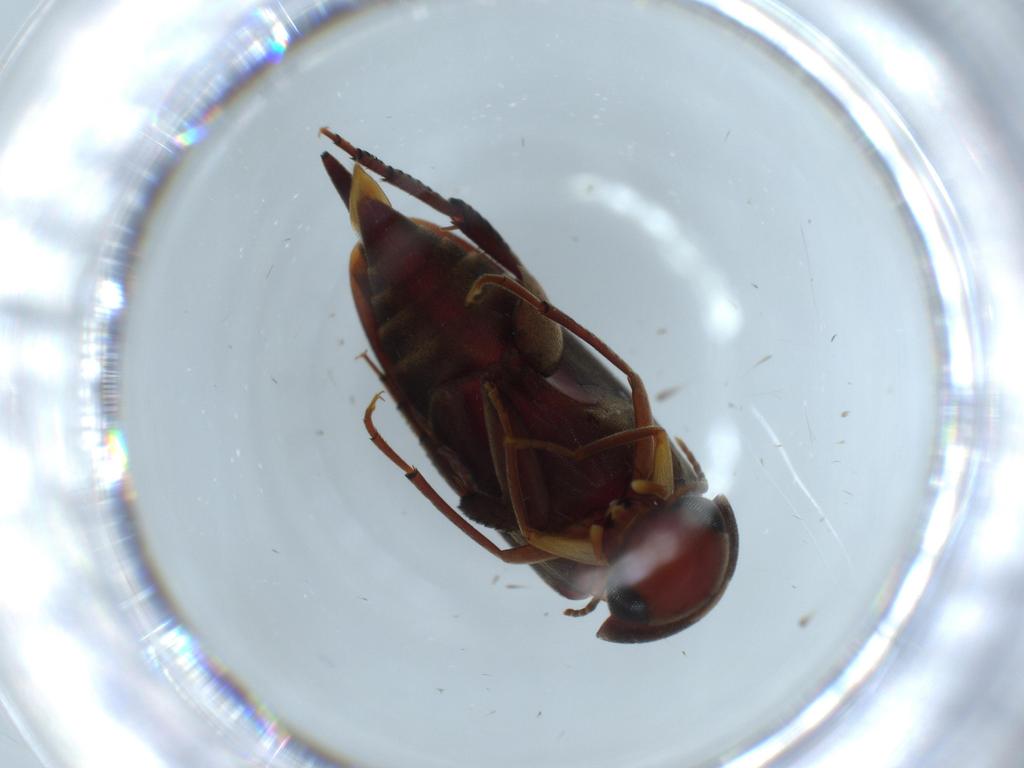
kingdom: Animalia
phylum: Arthropoda
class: Insecta
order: Coleoptera
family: Mordellidae
